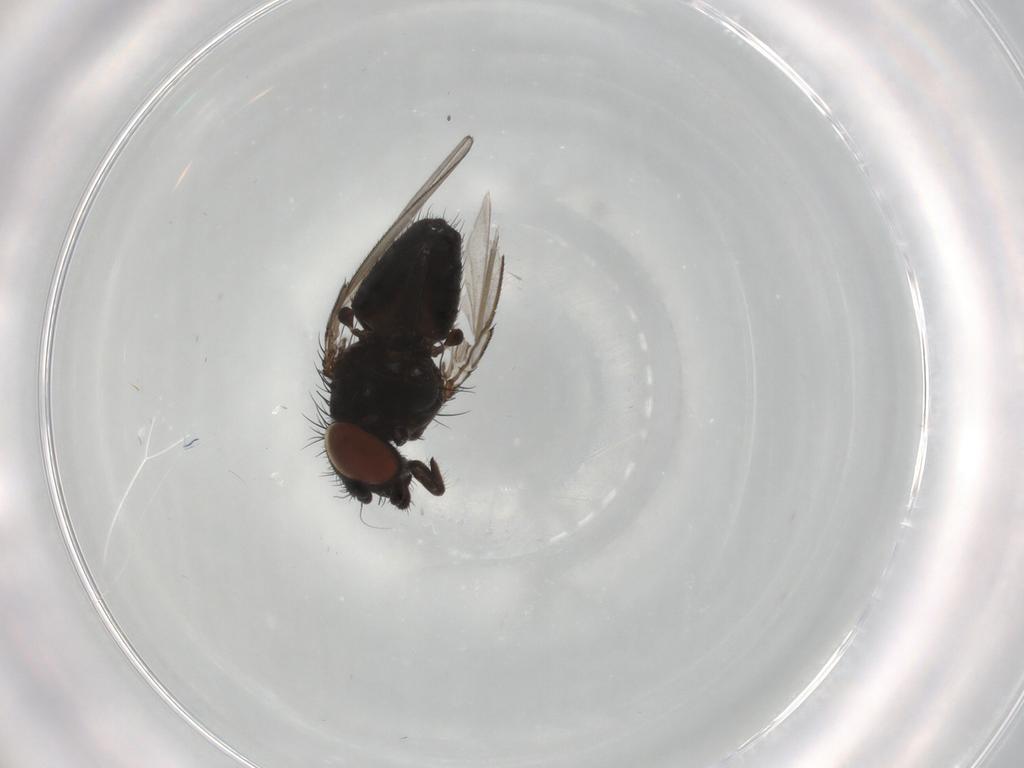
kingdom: Animalia
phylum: Arthropoda
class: Insecta
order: Diptera
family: Milichiidae
